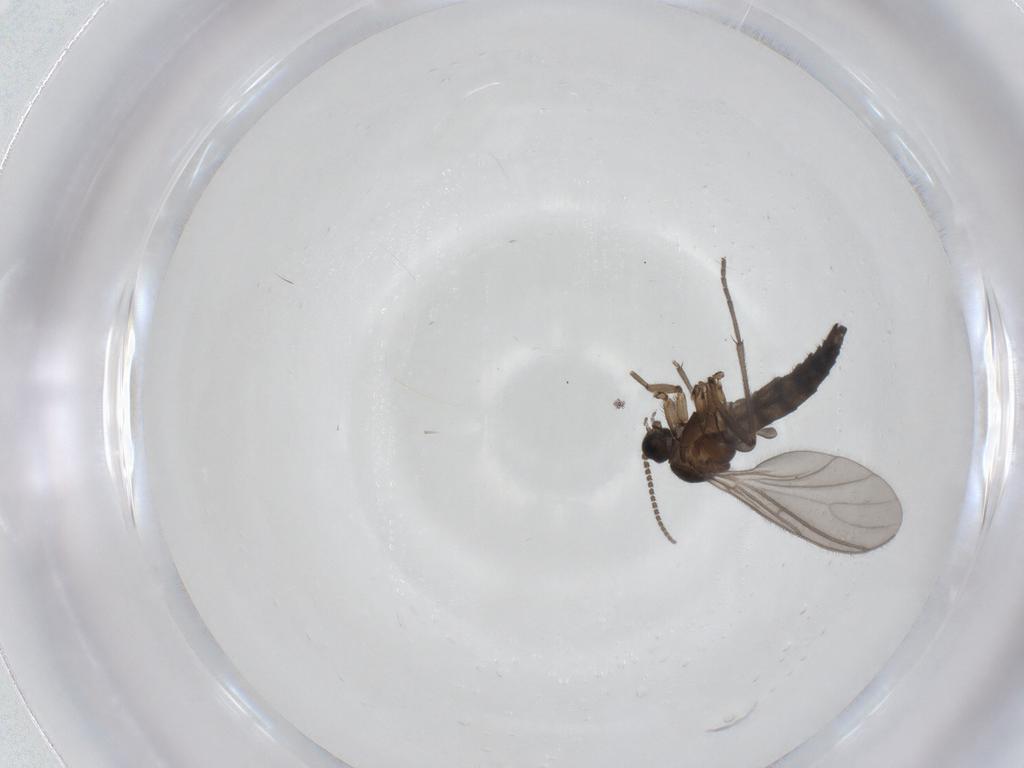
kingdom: Animalia
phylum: Arthropoda
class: Insecta
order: Diptera
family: Sciaridae
